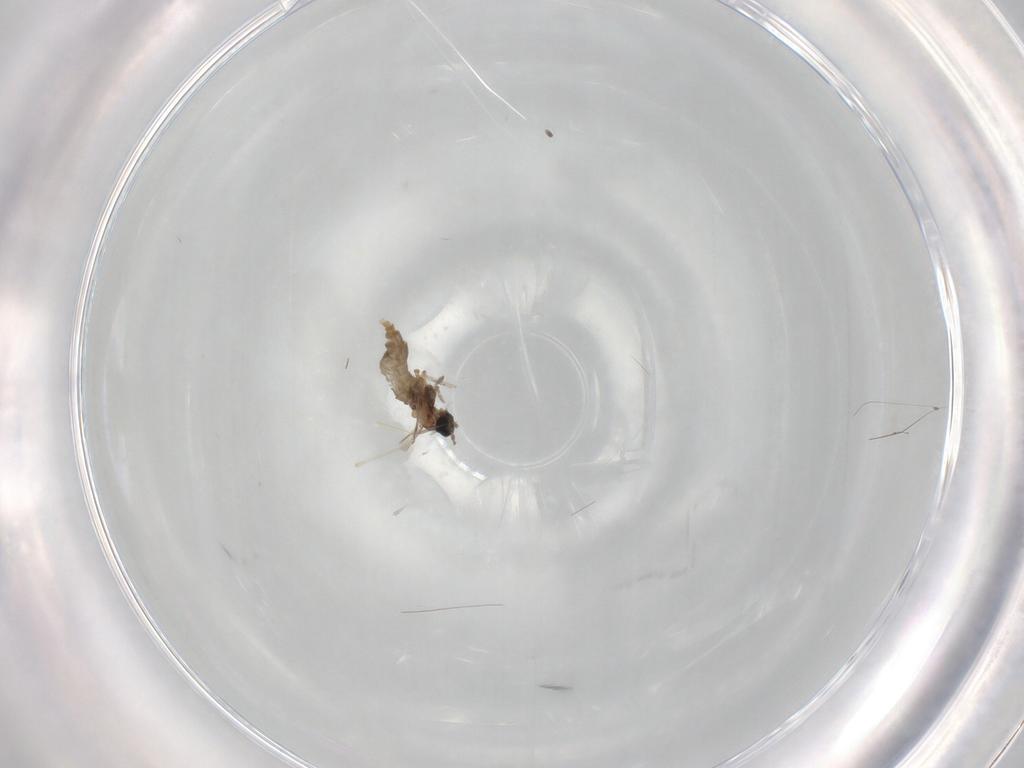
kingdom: Animalia
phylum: Arthropoda
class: Insecta
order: Diptera
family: Cecidomyiidae
